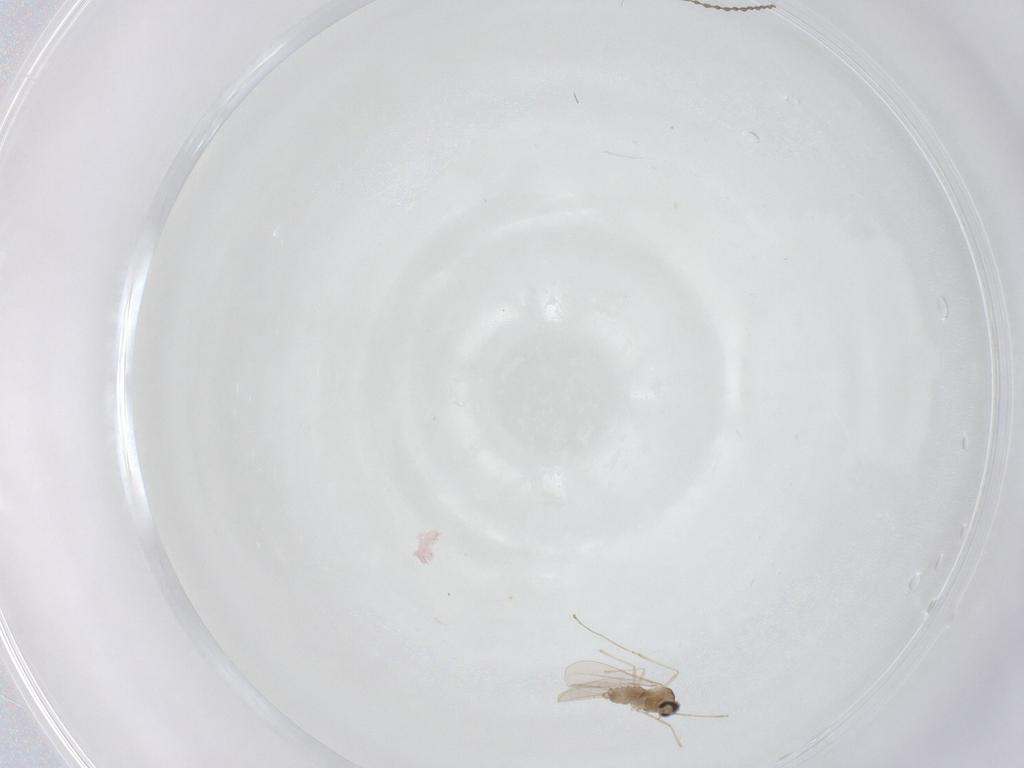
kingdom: Animalia
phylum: Arthropoda
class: Insecta
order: Diptera
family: Cecidomyiidae
